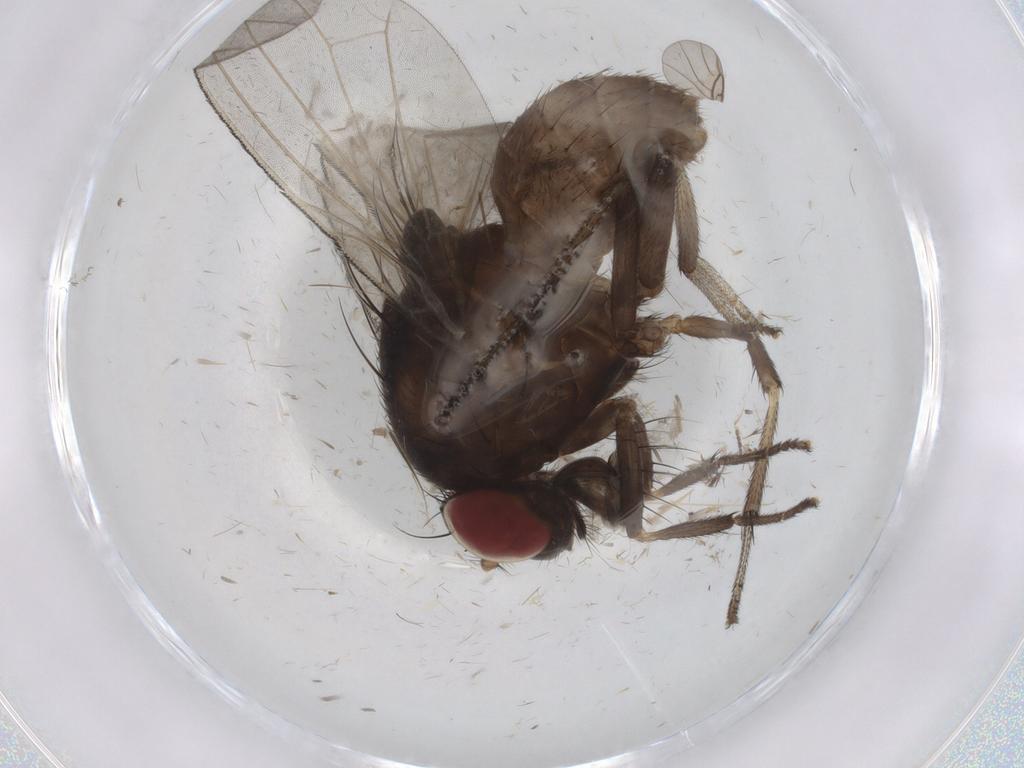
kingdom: Animalia
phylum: Arthropoda
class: Insecta
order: Diptera
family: Lauxaniidae
